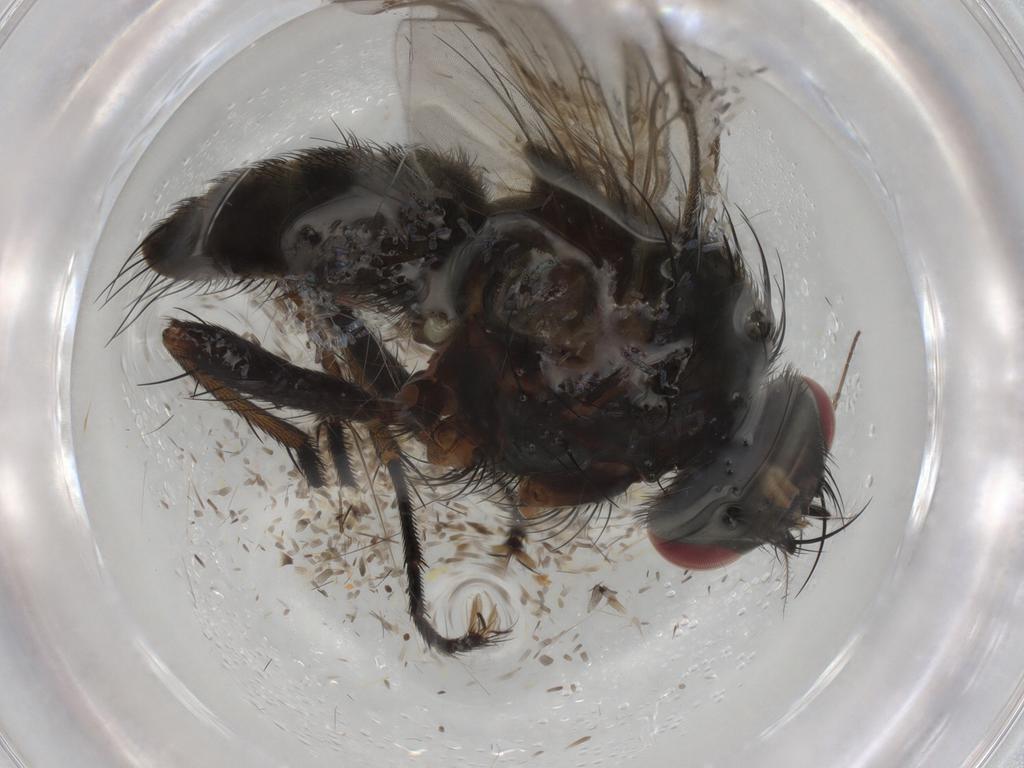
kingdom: Animalia
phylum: Arthropoda
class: Insecta
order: Diptera
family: Muscidae
